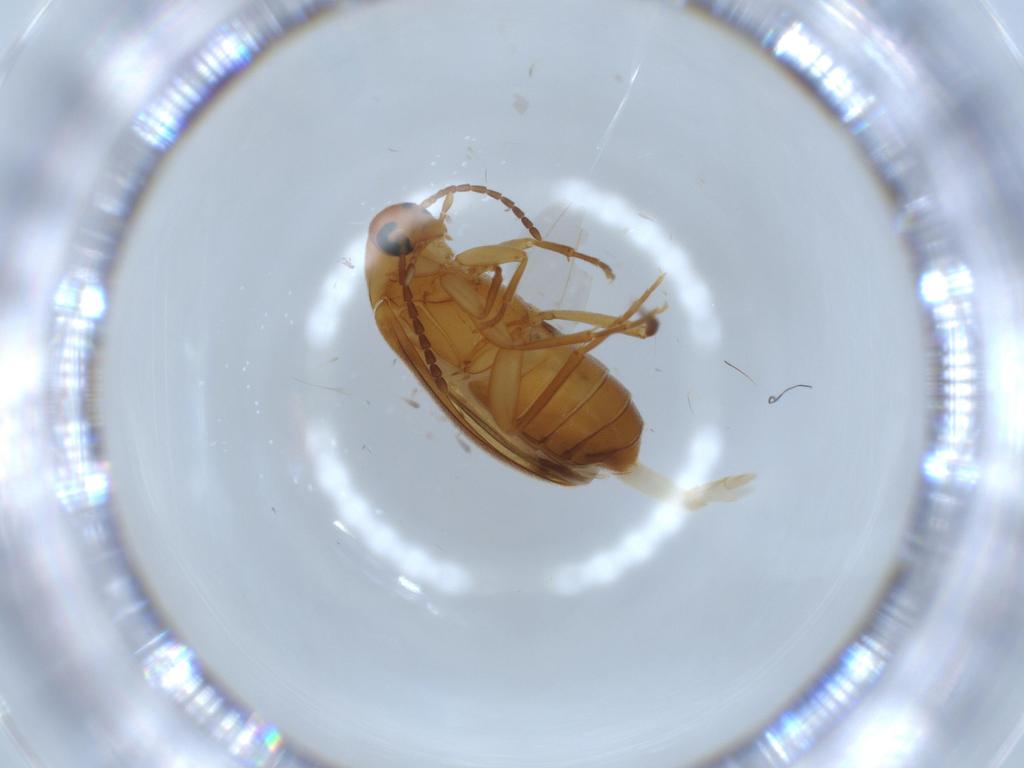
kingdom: Animalia
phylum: Arthropoda
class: Insecta
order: Coleoptera
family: Scraptiidae
